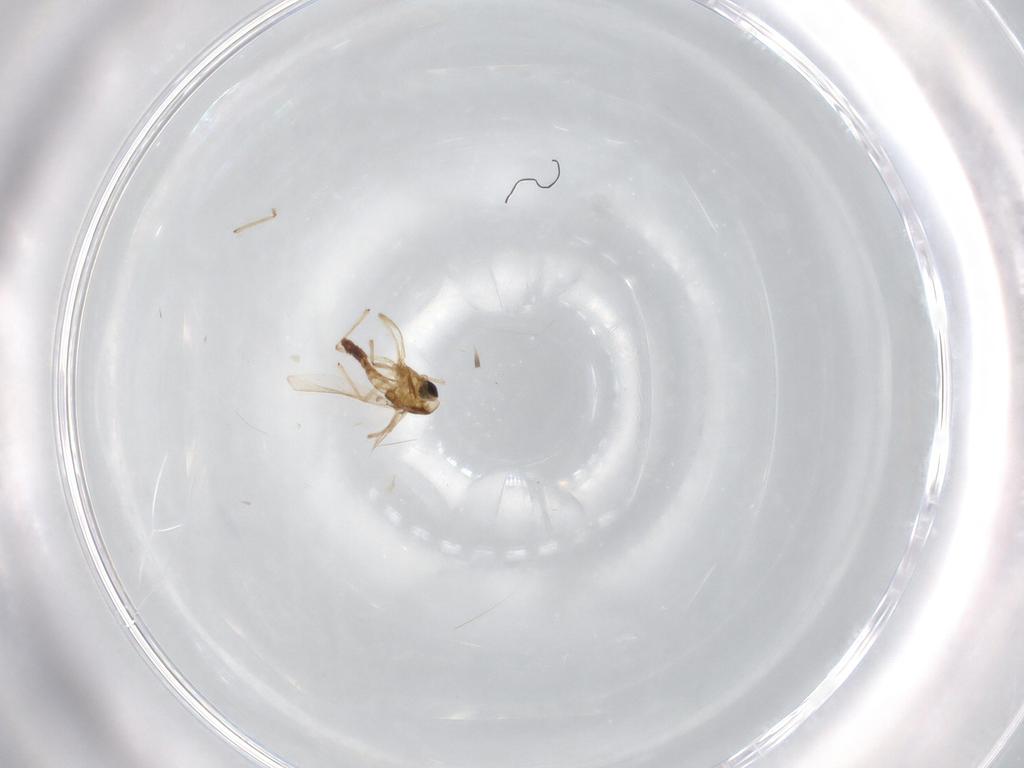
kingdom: Animalia
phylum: Arthropoda
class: Insecta
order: Diptera
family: Chironomidae
